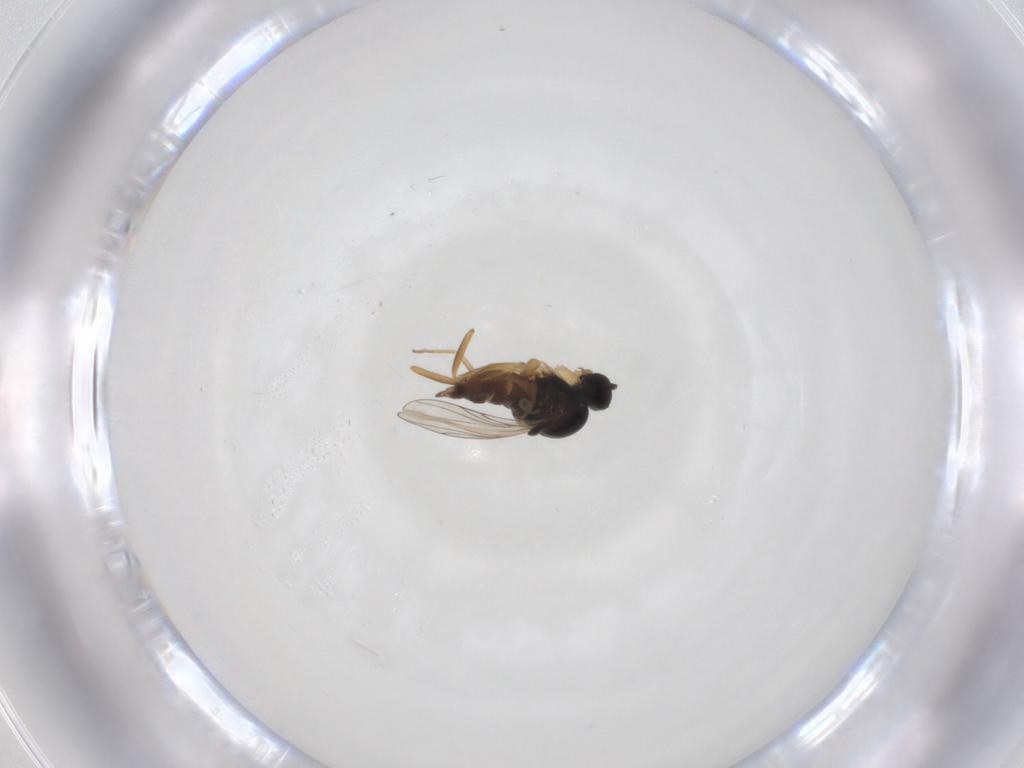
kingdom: Animalia
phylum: Arthropoda
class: Insecta
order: Diptera
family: Hybotidae
